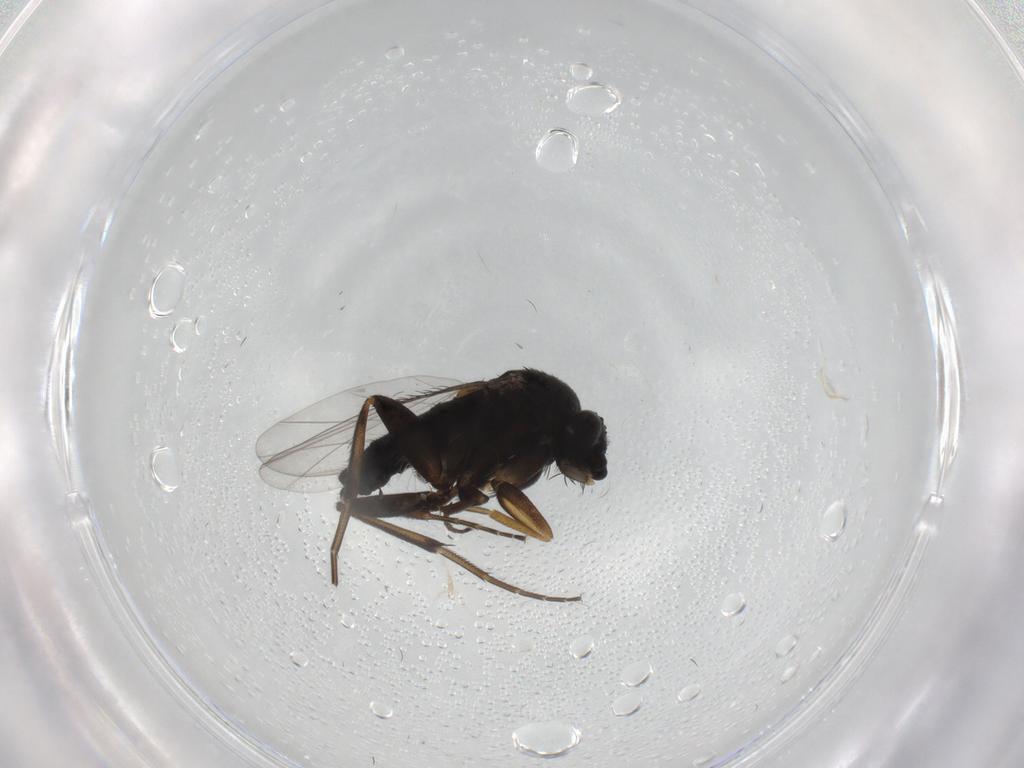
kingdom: Animalia
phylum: Arthropoda
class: Insecta
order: Diptera
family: Phoridae
